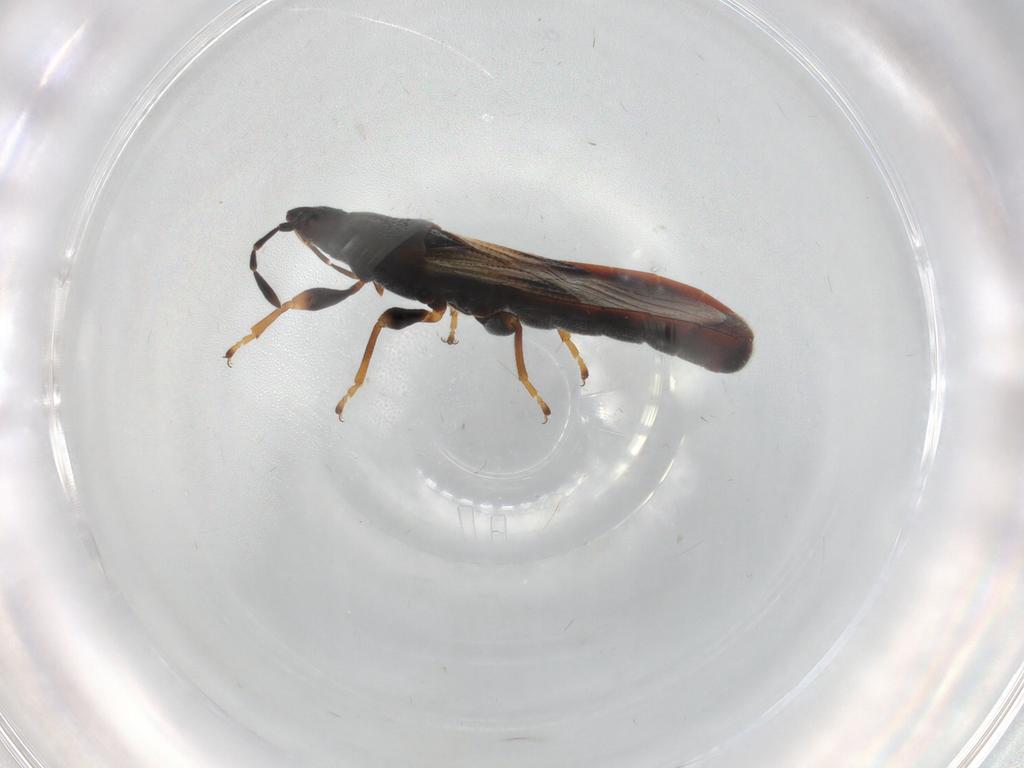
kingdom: Animalia
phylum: Arthropoda
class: Insecta
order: Hemiptera
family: Blissidae
